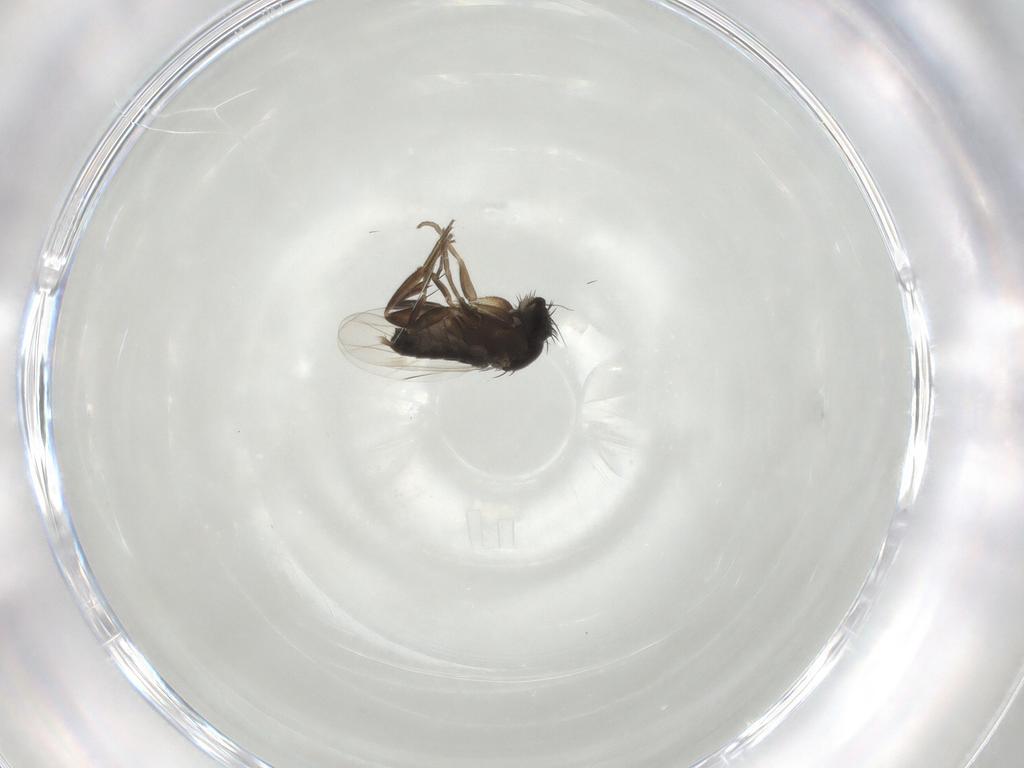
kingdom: Animalia
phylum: Arthropoda
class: Insecta
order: Diptera
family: Phoridae
